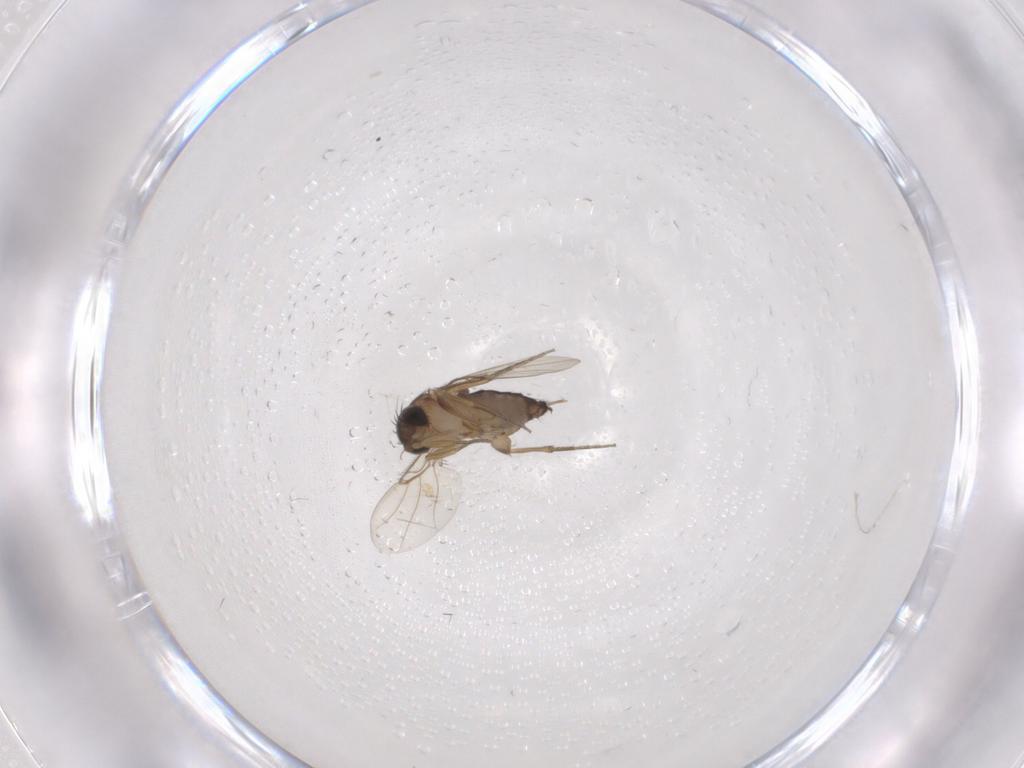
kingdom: Animalia
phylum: Arthropoda
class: Insecta
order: Diptera
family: Phoridae
